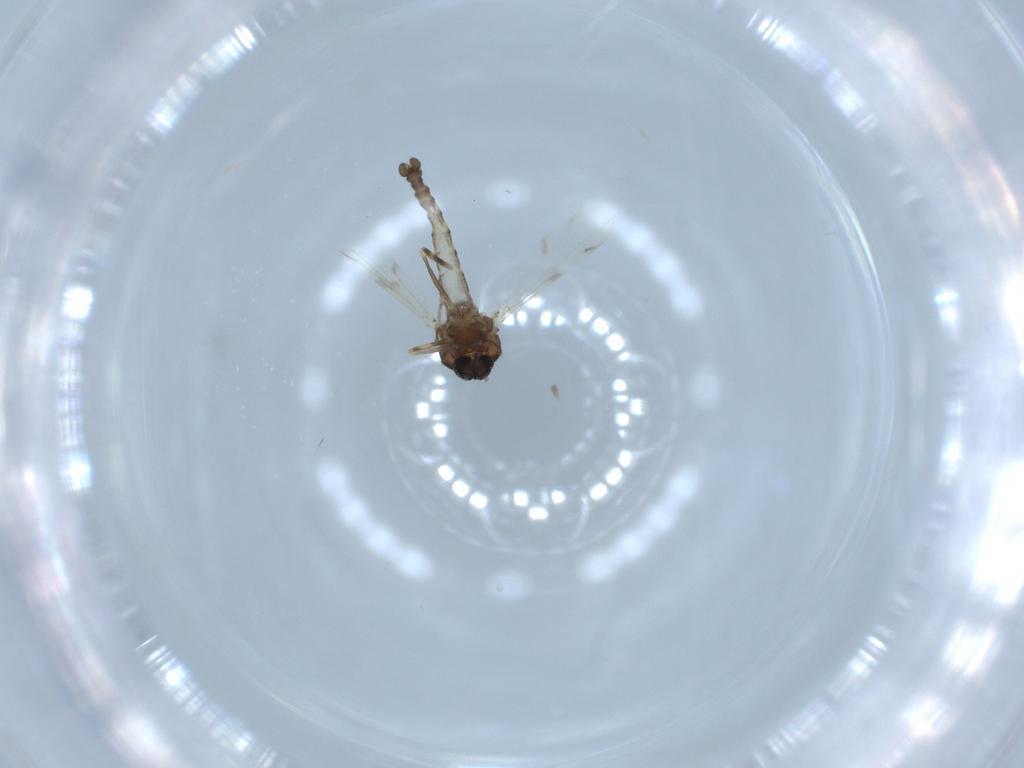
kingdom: Animalia
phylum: Arthropoda
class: Insecta
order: Diptera
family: Ceratopogonidae
